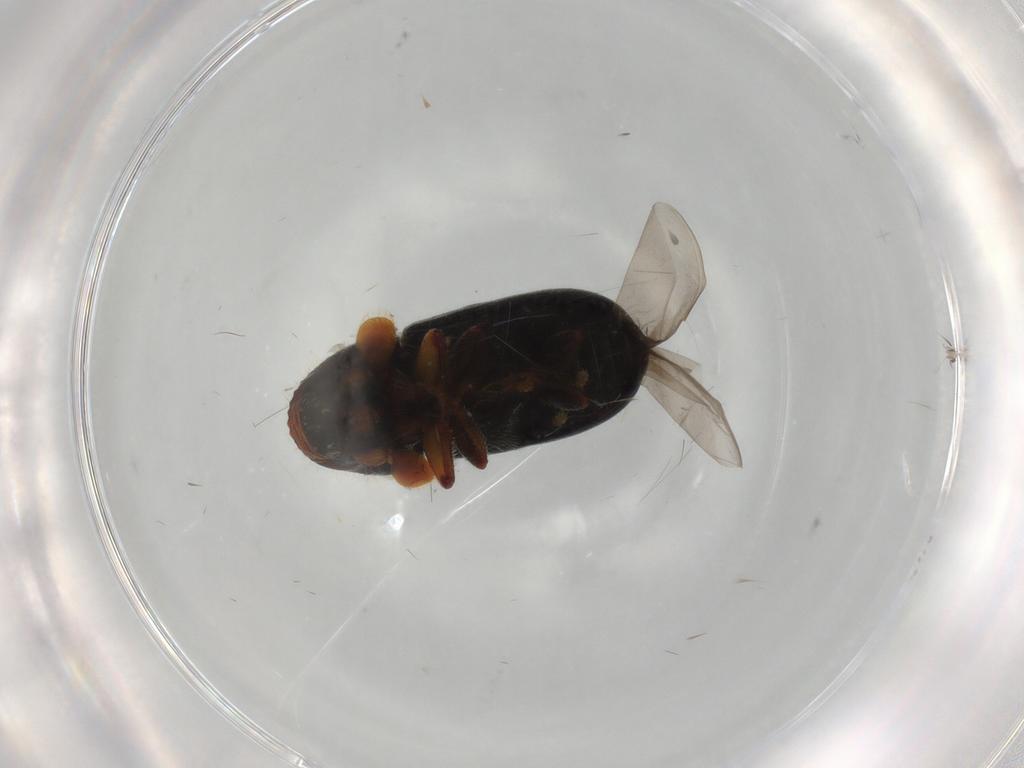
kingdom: Animalia
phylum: Arthropoda
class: Insecta
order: Coleoptera
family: Curculionidae
